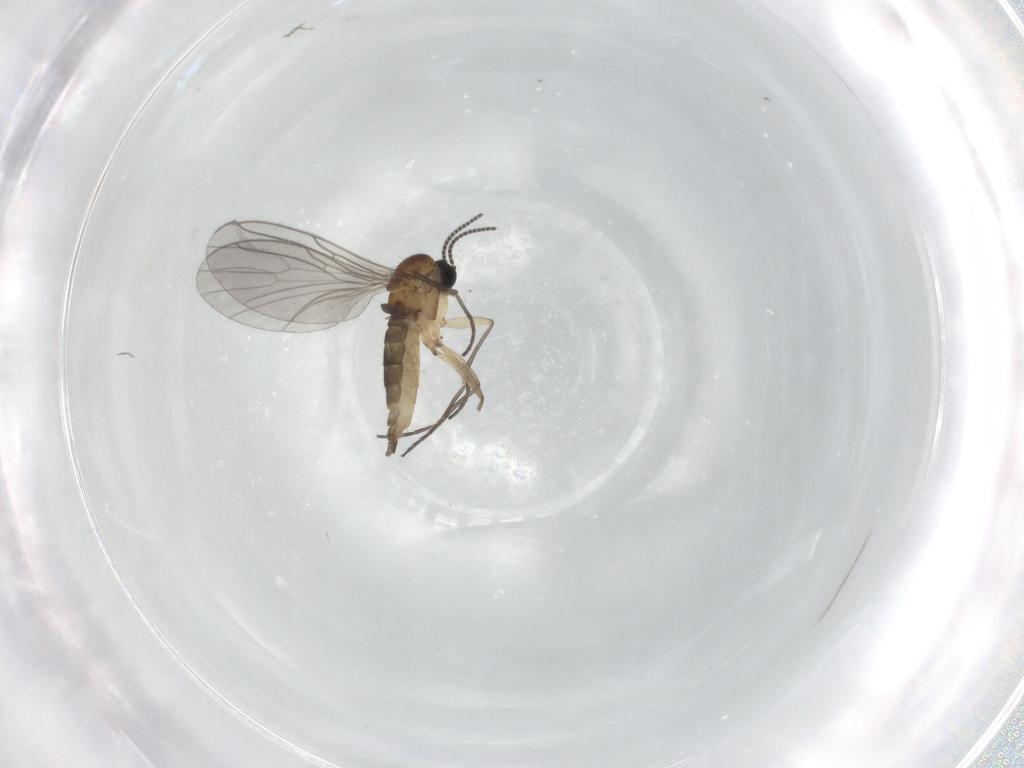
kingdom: Animalia
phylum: Arthropoda
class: Insecta
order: Diptera
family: Sciaridae
